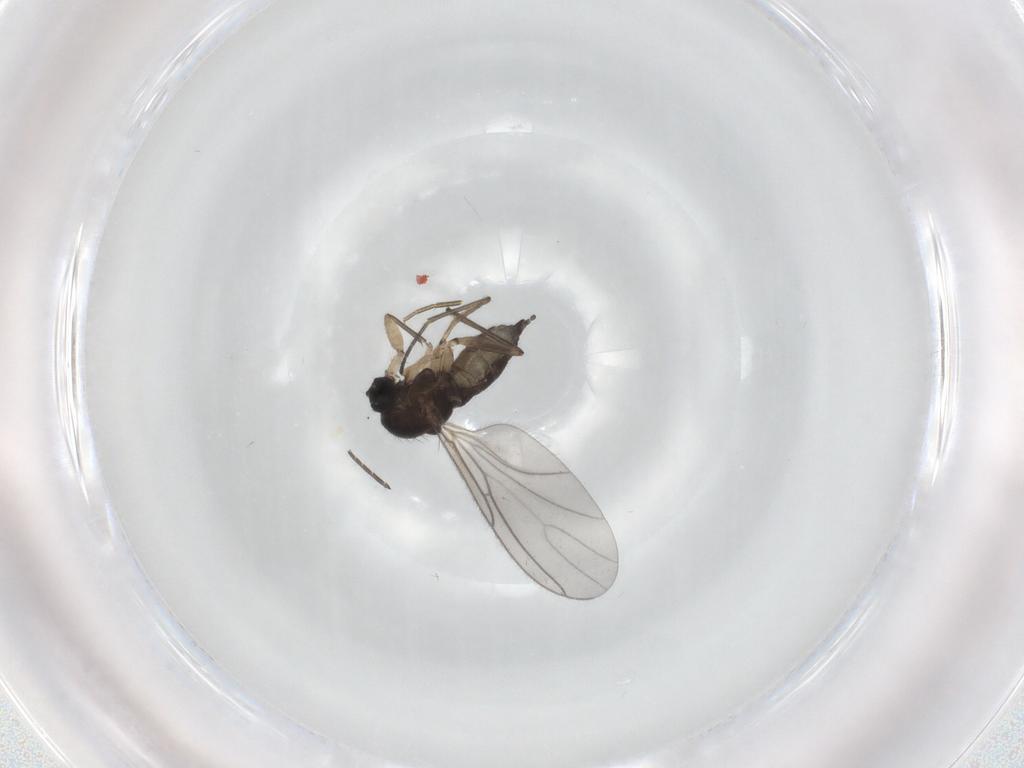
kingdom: Animalia
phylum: Arthropoda
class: Insecta
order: Diptera
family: Sciaridae
